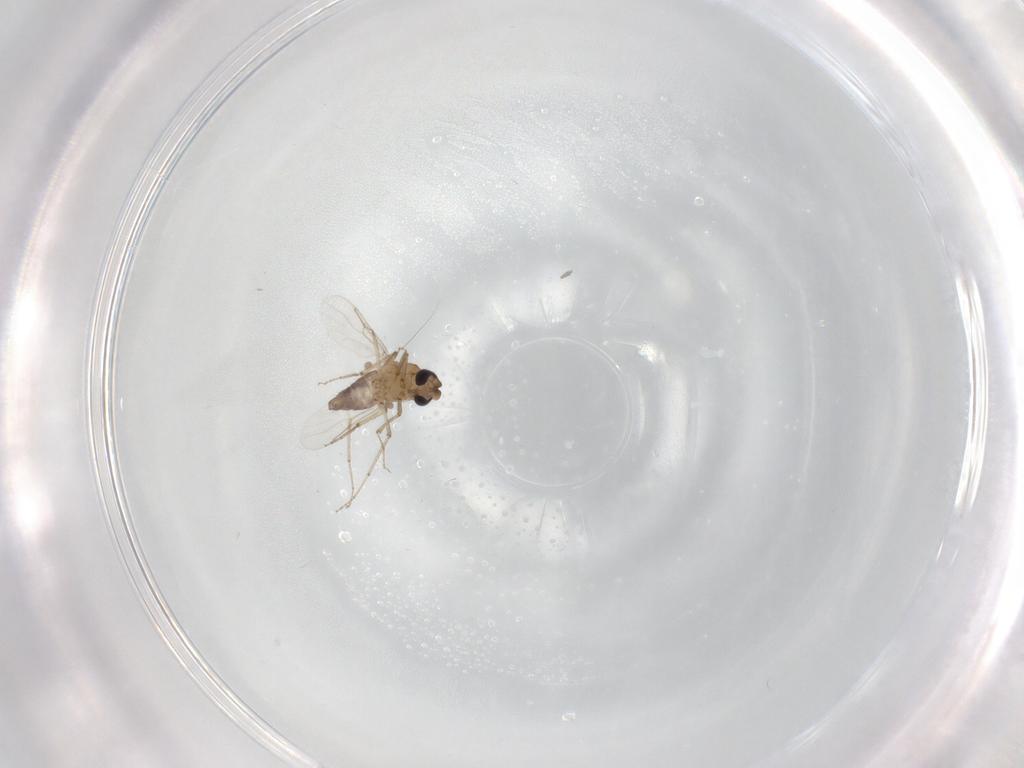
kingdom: Animalia
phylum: Arthropoda
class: Insecta
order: Diptera
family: Ceratopogonidae
